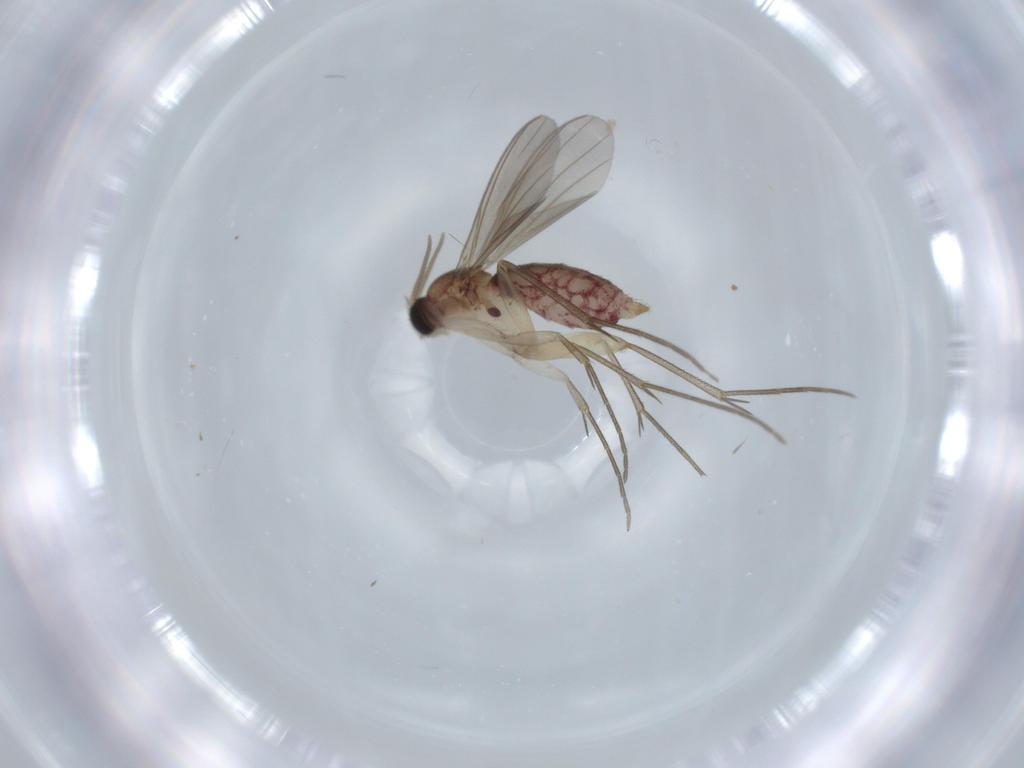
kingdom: Animalia
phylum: Arthropoda
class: Insecta
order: Diptera
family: Mycetophilidae
